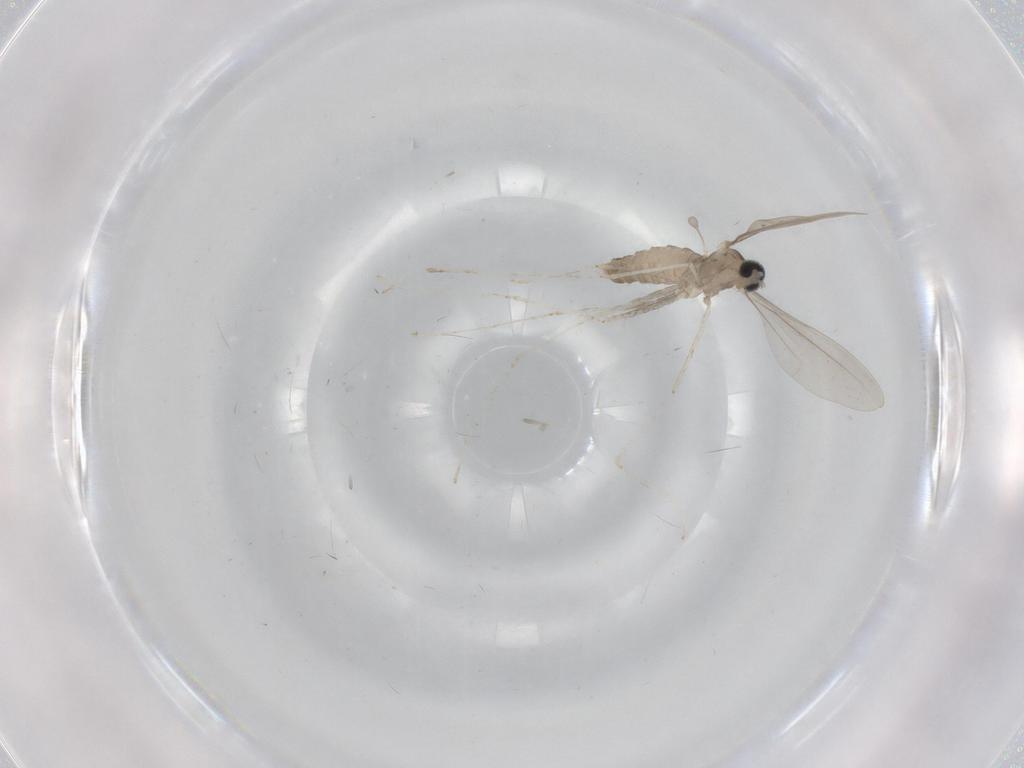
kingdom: Animalia
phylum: Arthropoda
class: Insecta
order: Diptera
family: Cecidomyiidae
